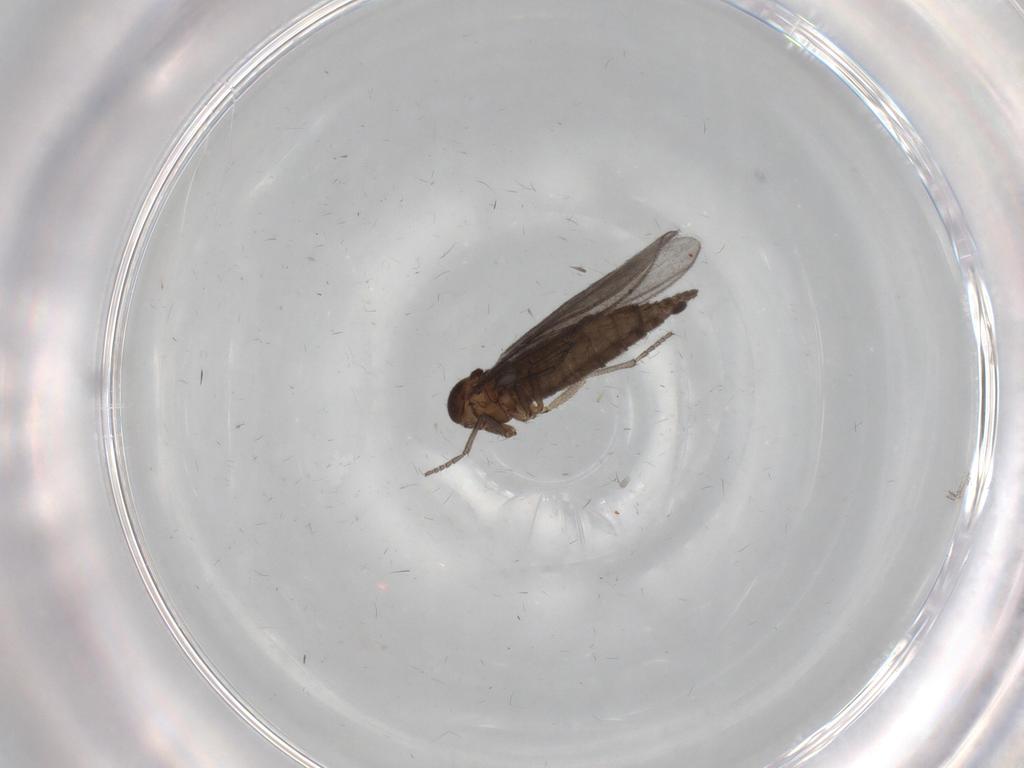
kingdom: Animalia
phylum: Arthropoda
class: Insecta
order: Diptera
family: Sciaridae
